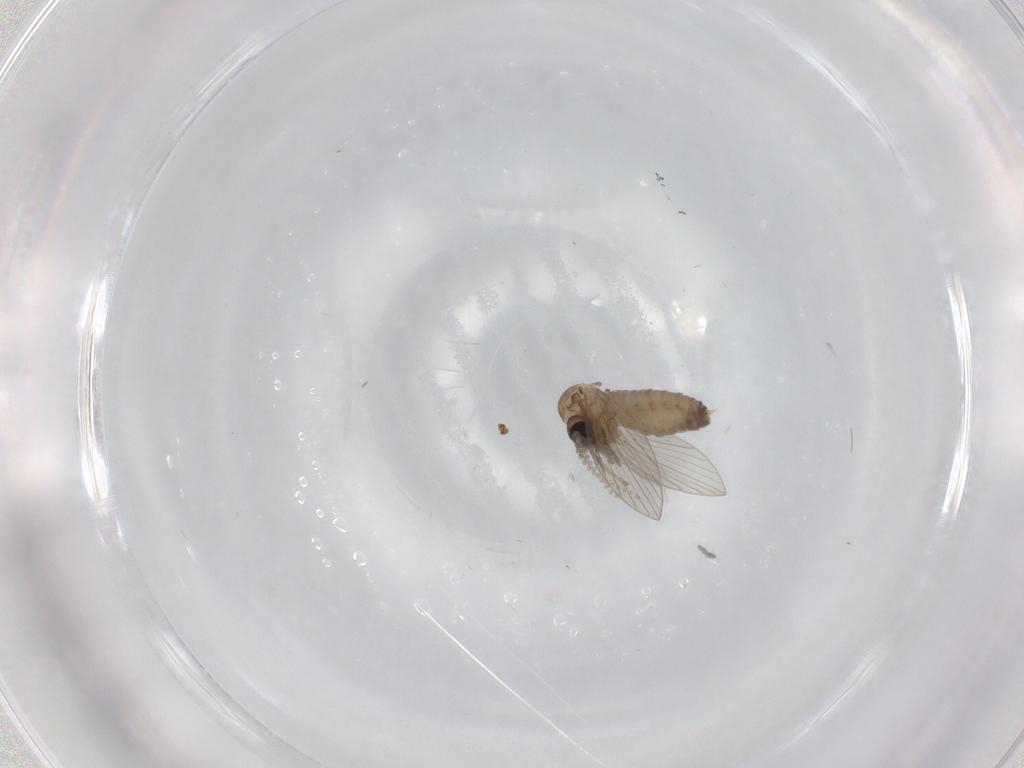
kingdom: Animalia
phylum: Arthropoda
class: Insecta
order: Diptera
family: Psychodidae
